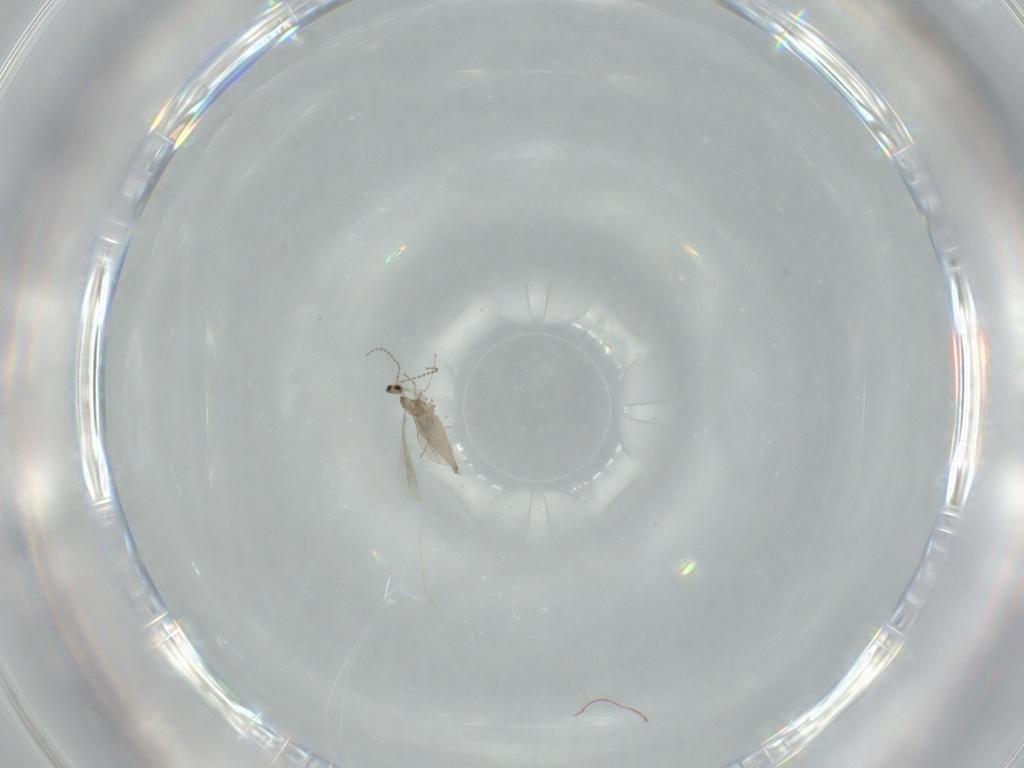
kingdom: Animalia
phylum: Arthropoda
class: Insecta
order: Diptera
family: Cecidomyiidae
